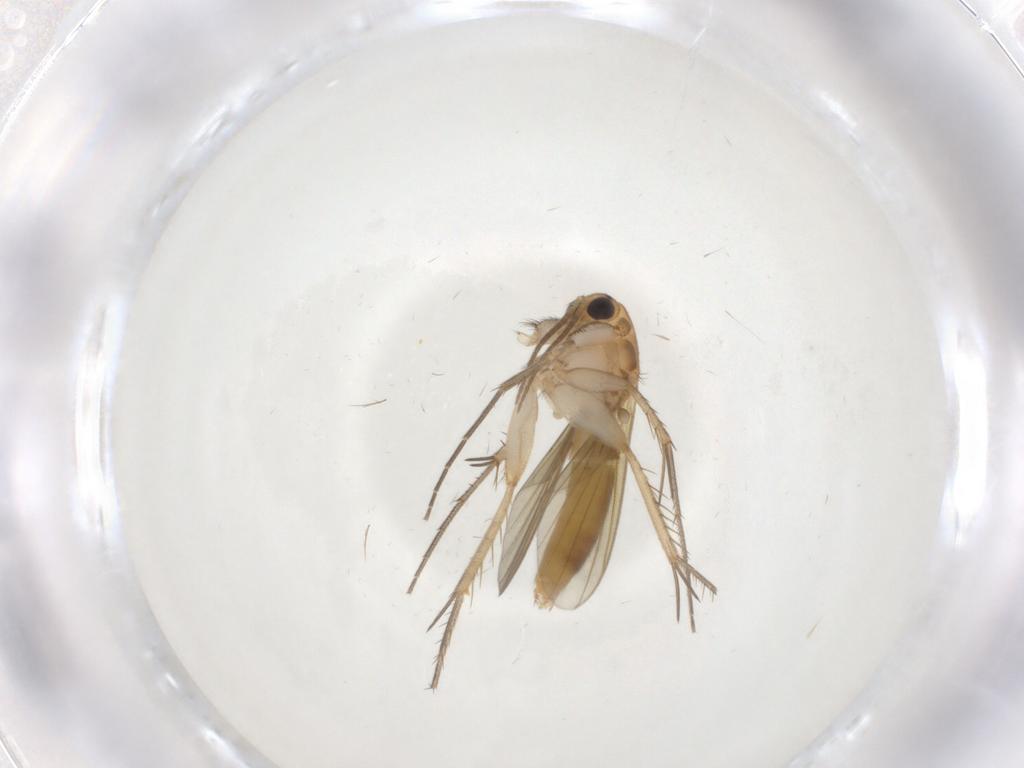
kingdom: Animalia
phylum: Arthropoda
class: Insecta
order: Diptera
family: Mycetophilidae
